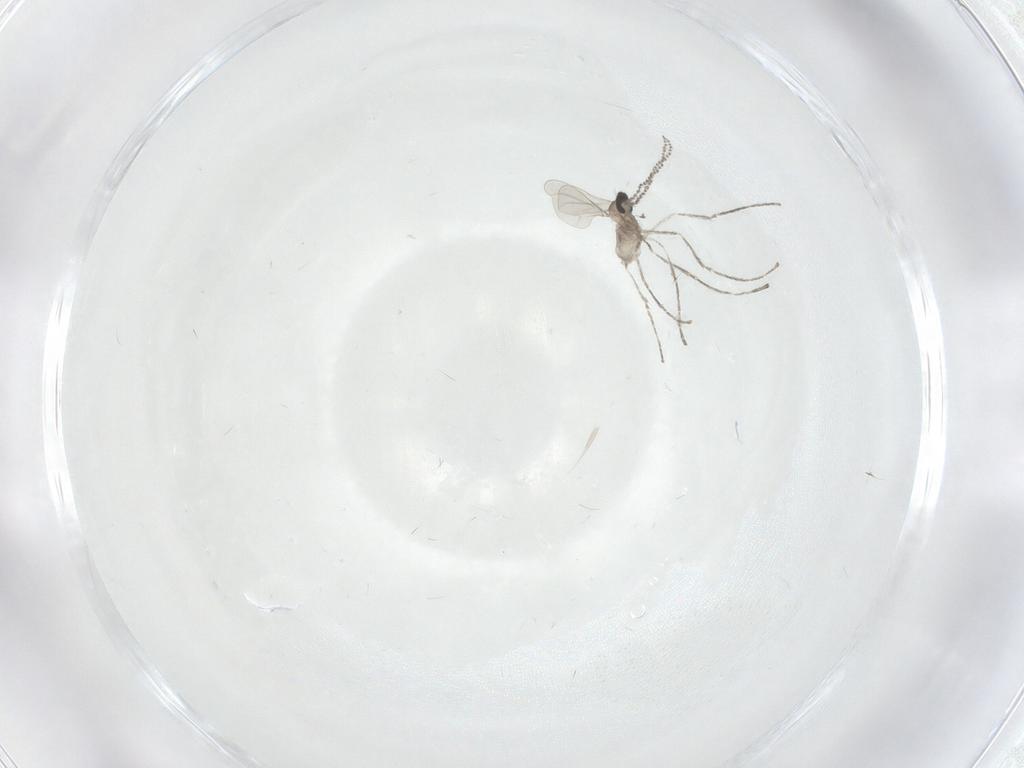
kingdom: Animalia
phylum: Arthropoda
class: Insecta
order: Diptera
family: Cecidomyiidae
